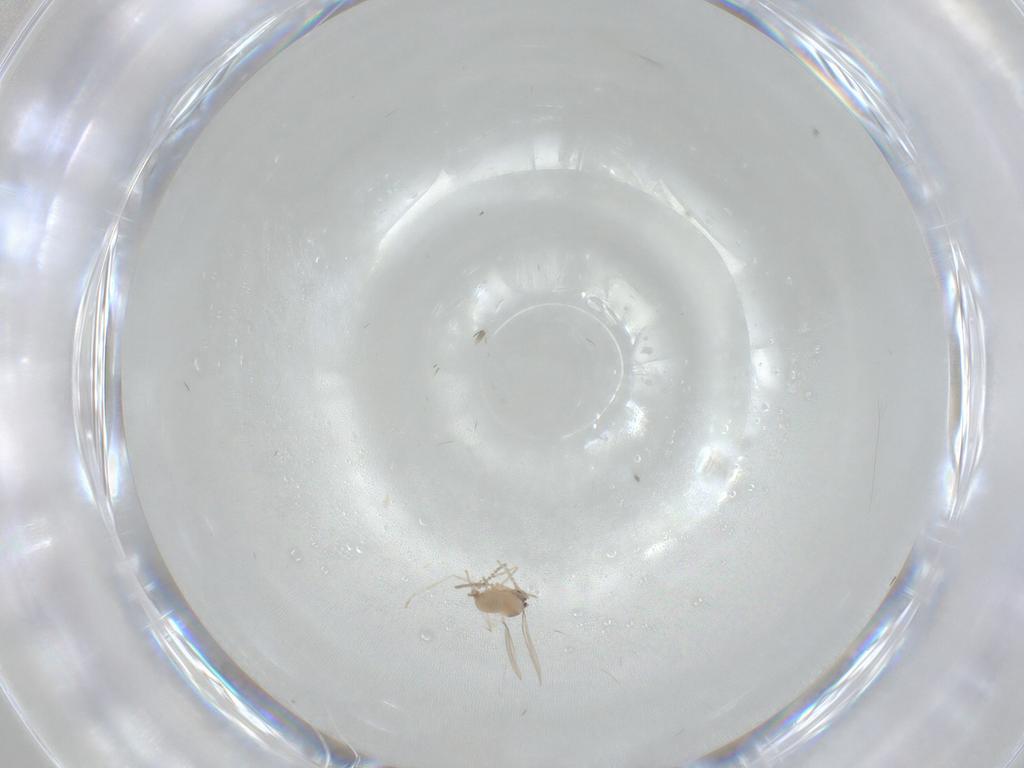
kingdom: Animalia
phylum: Arthropoda
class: Insecta
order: Diptera
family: Cecidomyiidae
